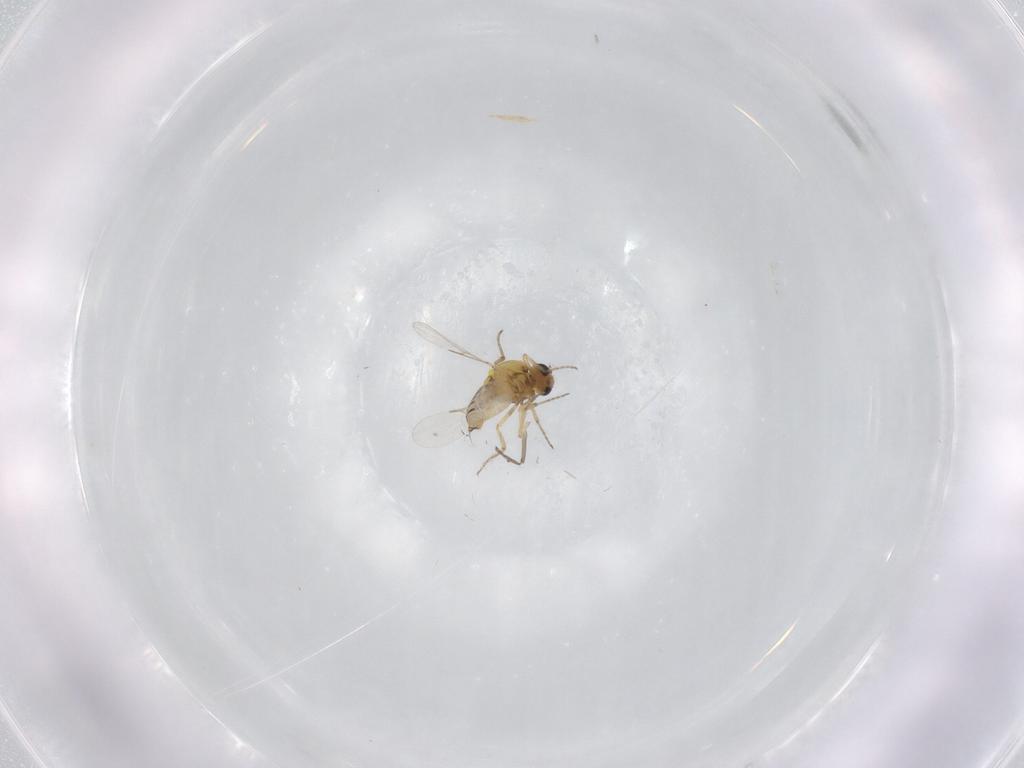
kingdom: Animalia
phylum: Arthropoda
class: Insecta
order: Diptera
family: Ceratopogonidae
